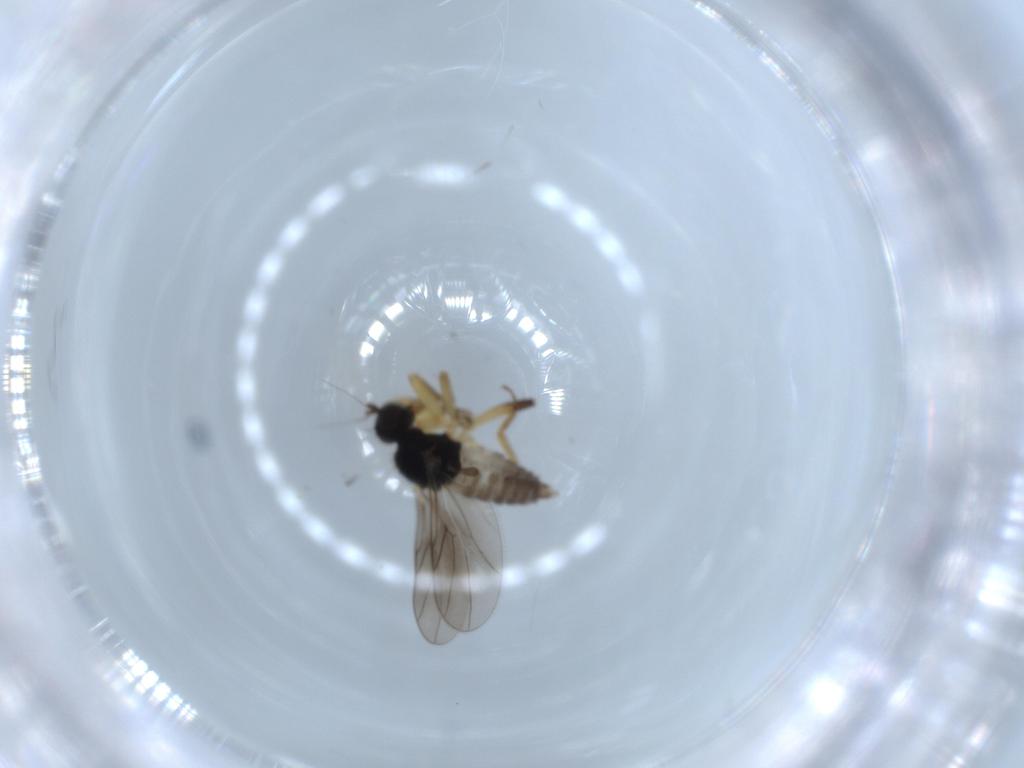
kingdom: Animalia
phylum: Arthropoda
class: Insecta
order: Diptera
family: Hybotidae
